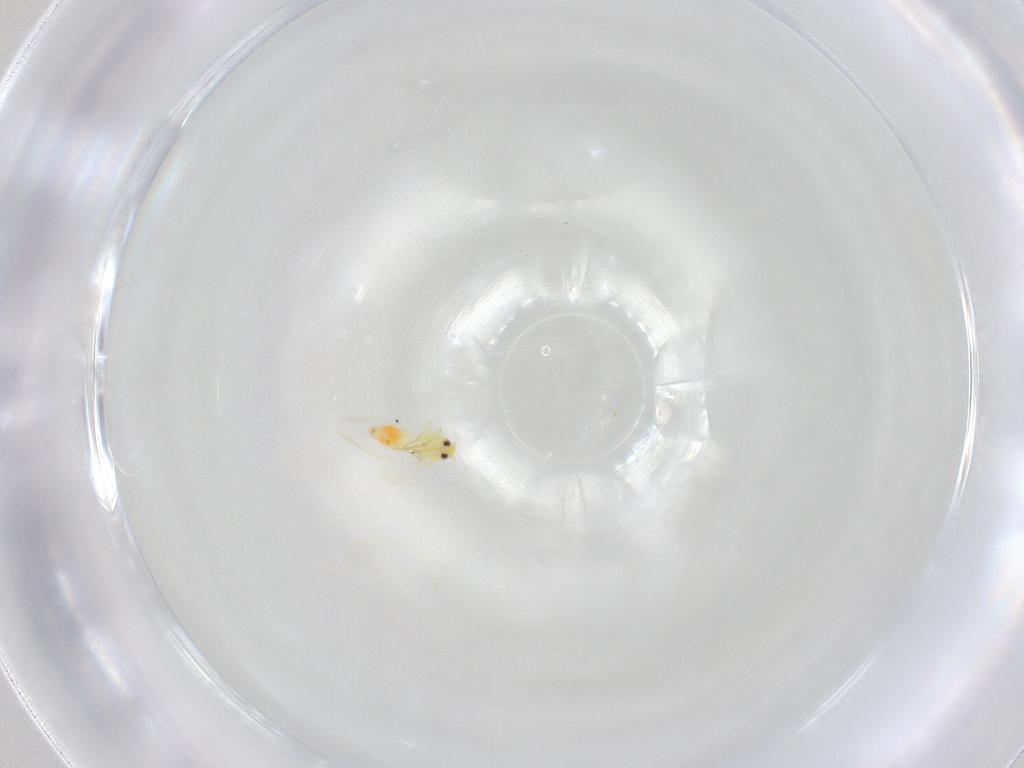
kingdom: Animalia
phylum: Arthropoda
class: Insecta
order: Hemiptera
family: Aleyrodidae
